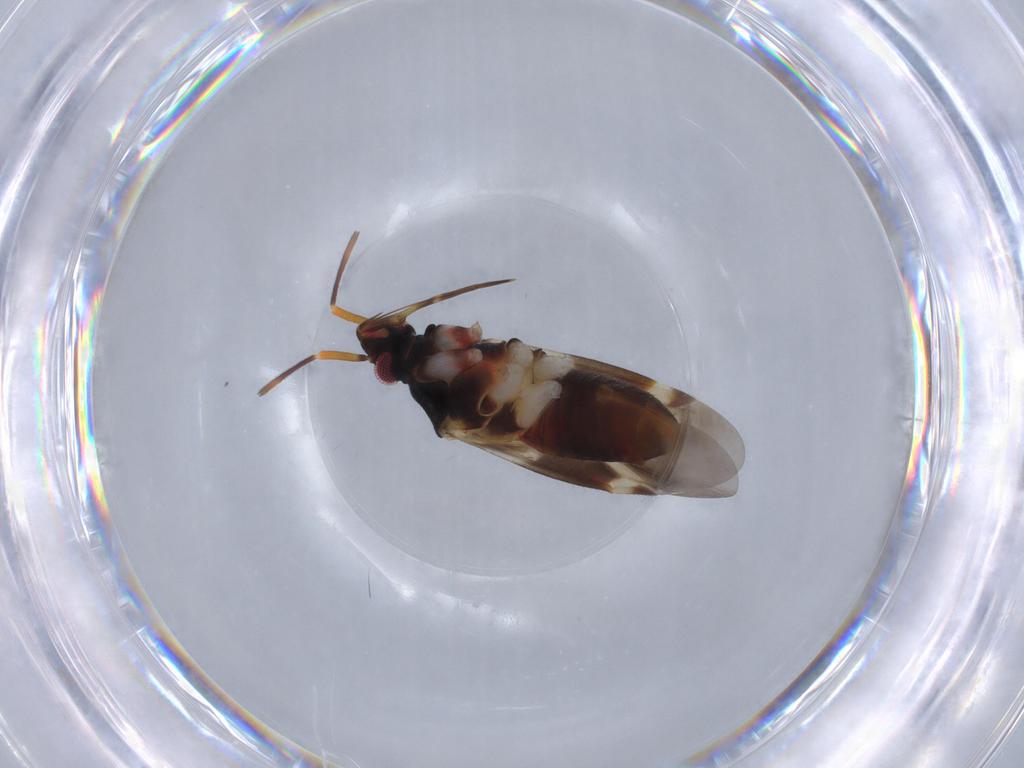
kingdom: Animalia
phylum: Arthropoda
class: Insecta
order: Hemiptera
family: Miridae
